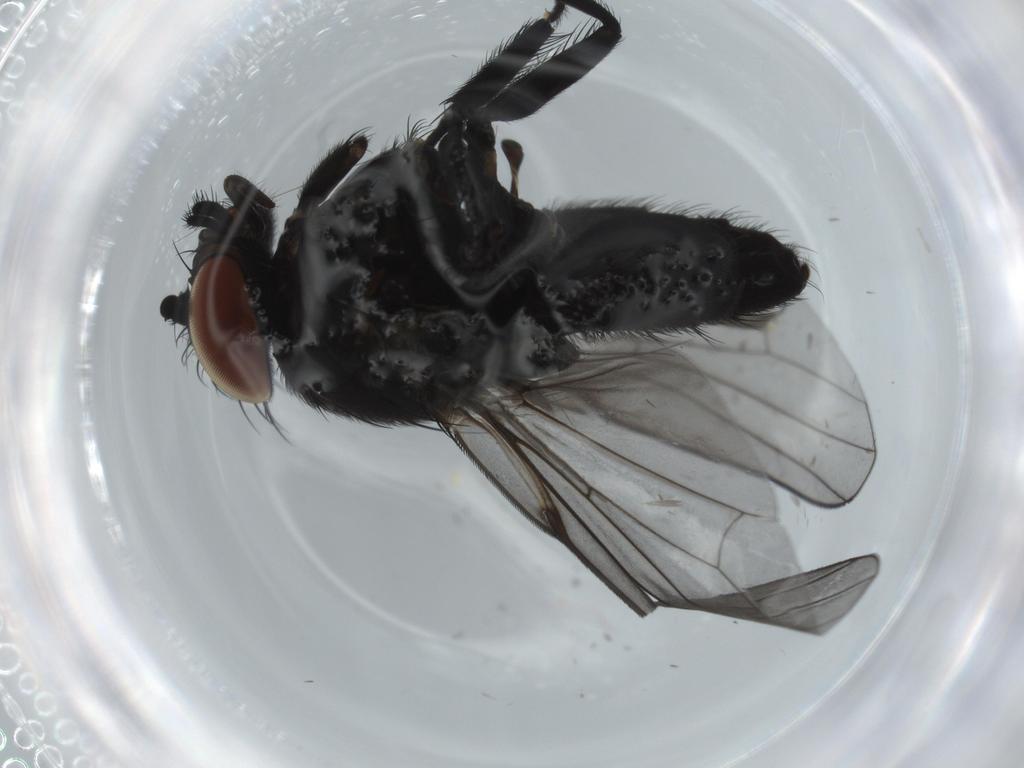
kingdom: Animalia
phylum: Arthropoda
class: Insecta
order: Diptera
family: Milichiidae
